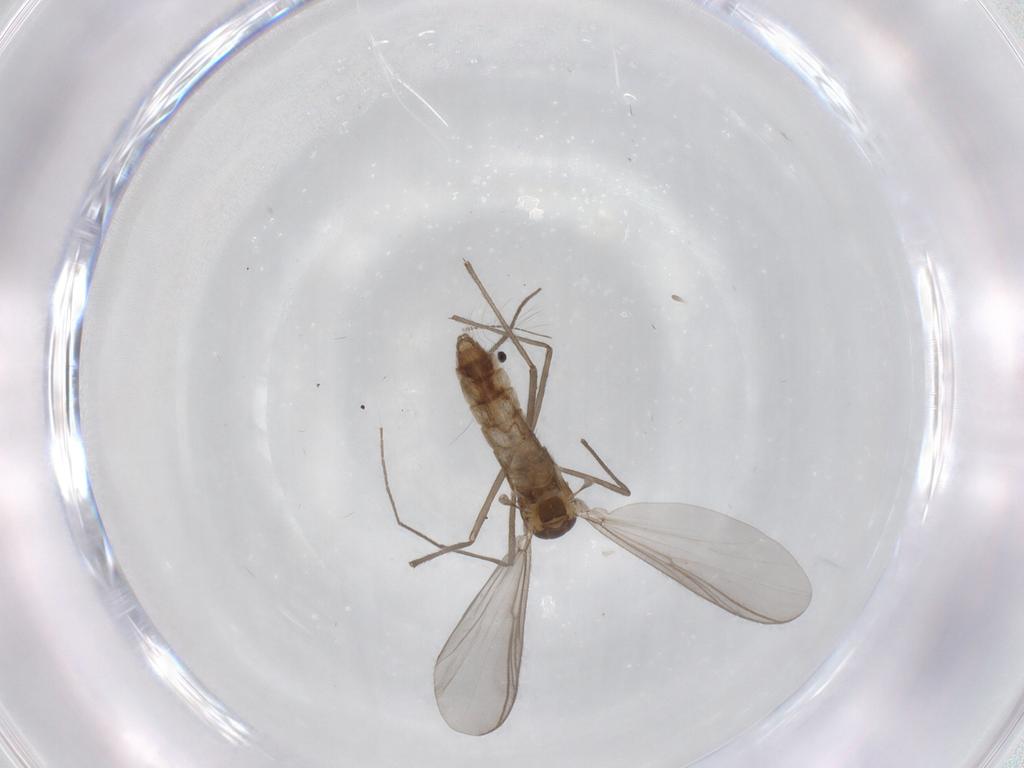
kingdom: Animalia
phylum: Arthropoda
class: Insecta
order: Diptera
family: Chironomidae
